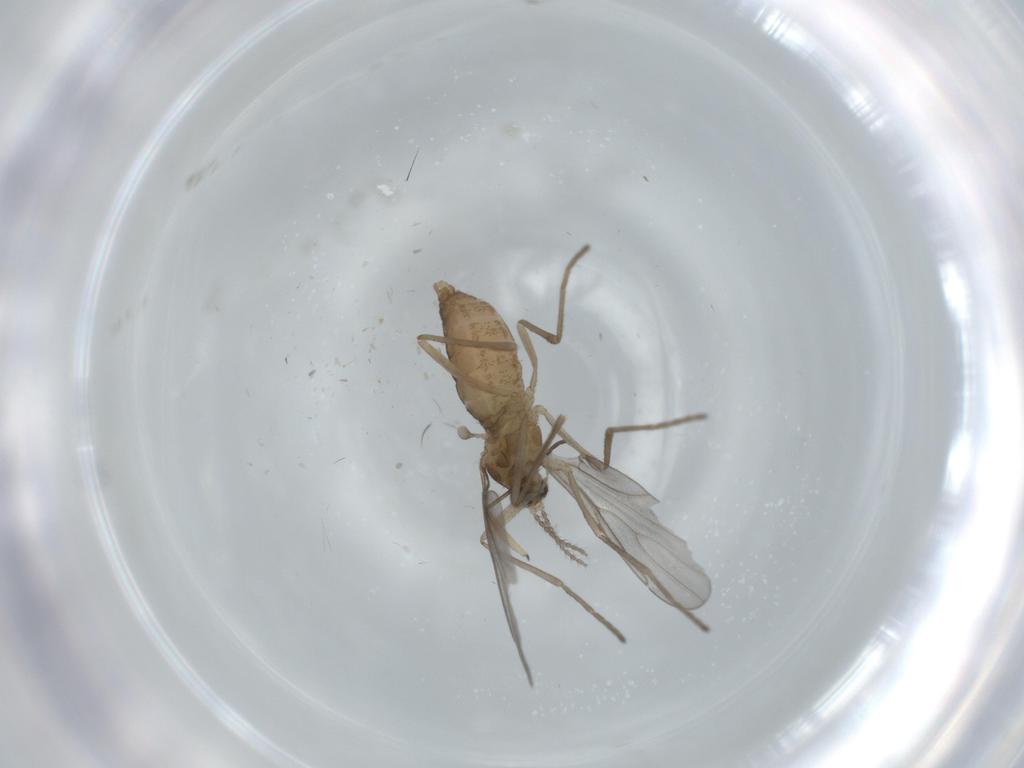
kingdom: Animalia
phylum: Arthropoda
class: Insecta
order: Diptera
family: Sciaridae
